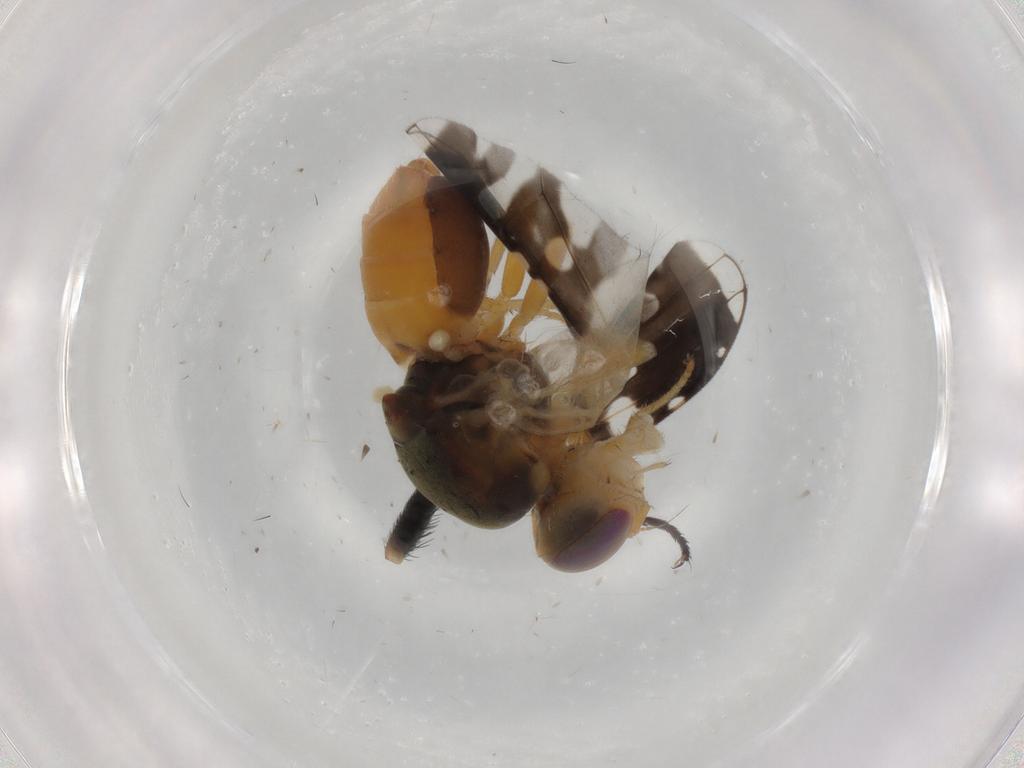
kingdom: Animalia
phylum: Arthropoda
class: Insecta
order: Diptera
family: Tephritidae
